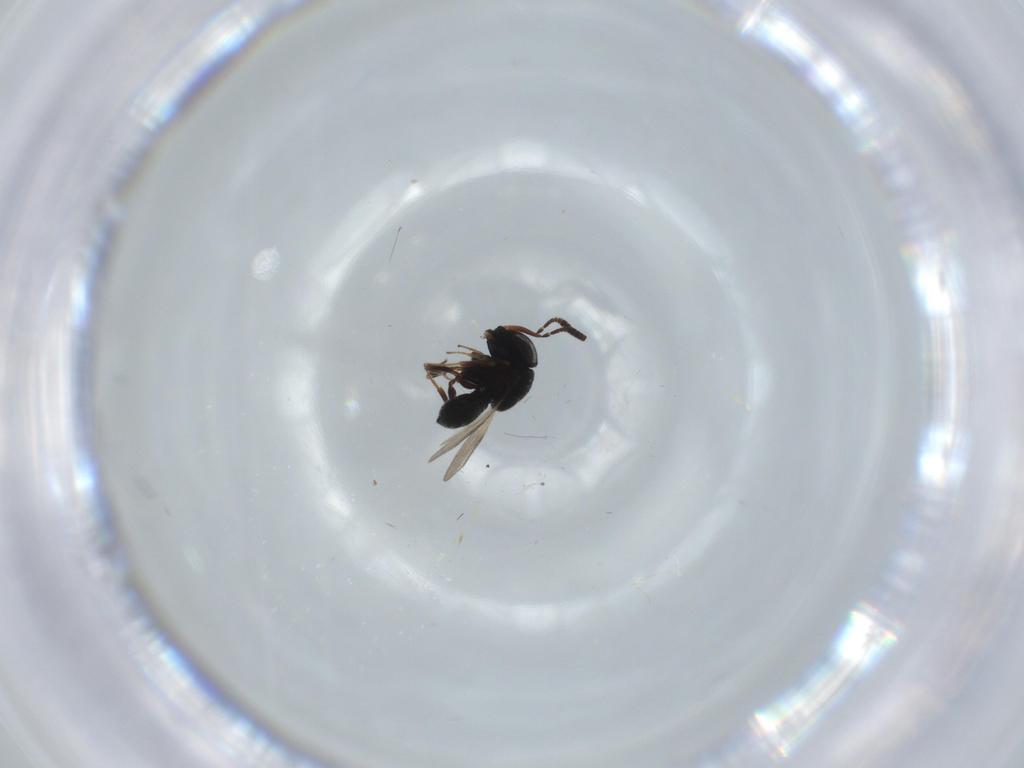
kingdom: Animalia
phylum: Arthropoda
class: Insecta
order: Hymenoptera
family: Scelionidae
